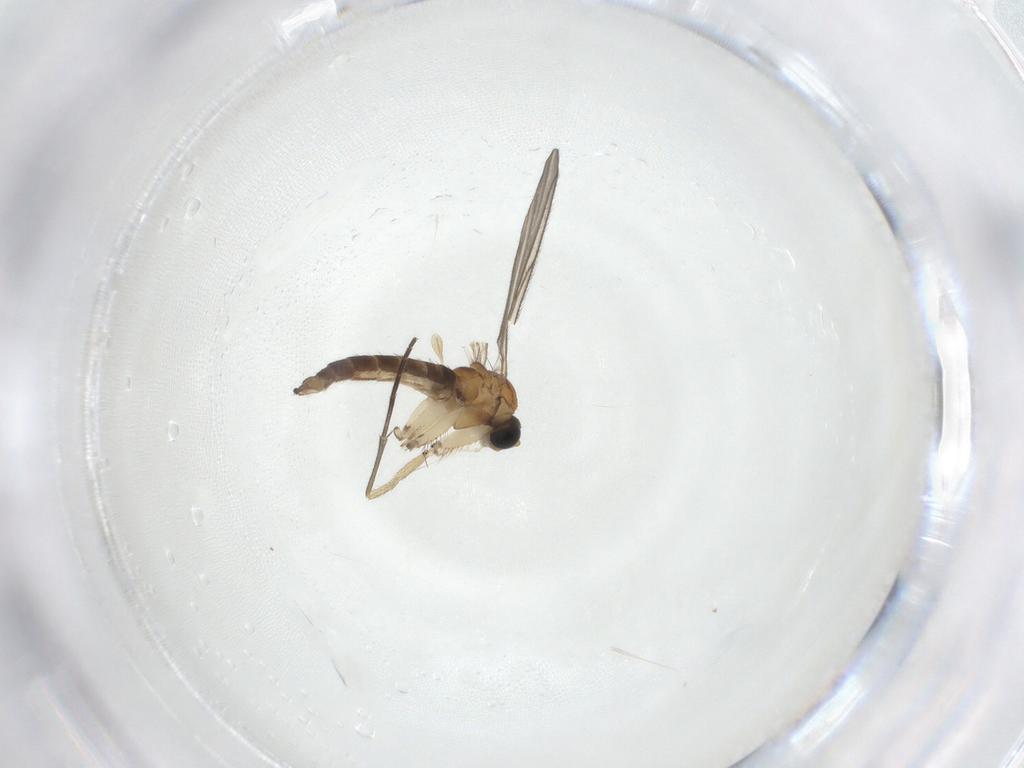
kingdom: Animalia
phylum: Arthropoda
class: Insecta
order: Diptera
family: Sciaridae
